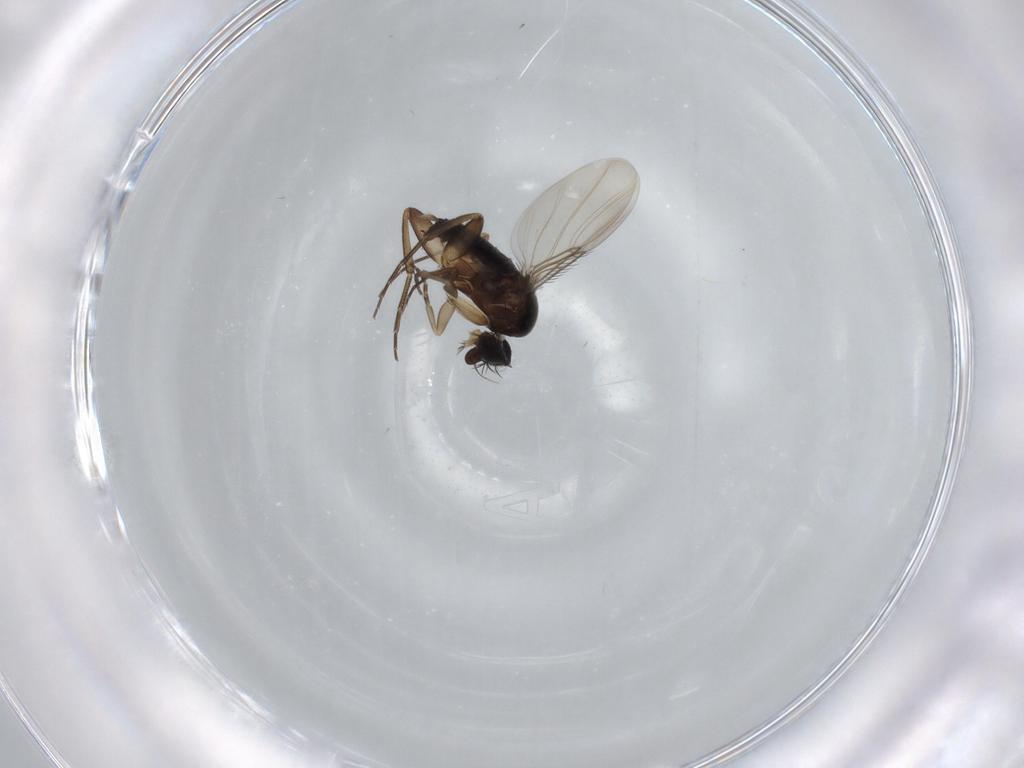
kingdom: Animalia
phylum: Arthropoda
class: Insecta
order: Diptera
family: Phoridae
